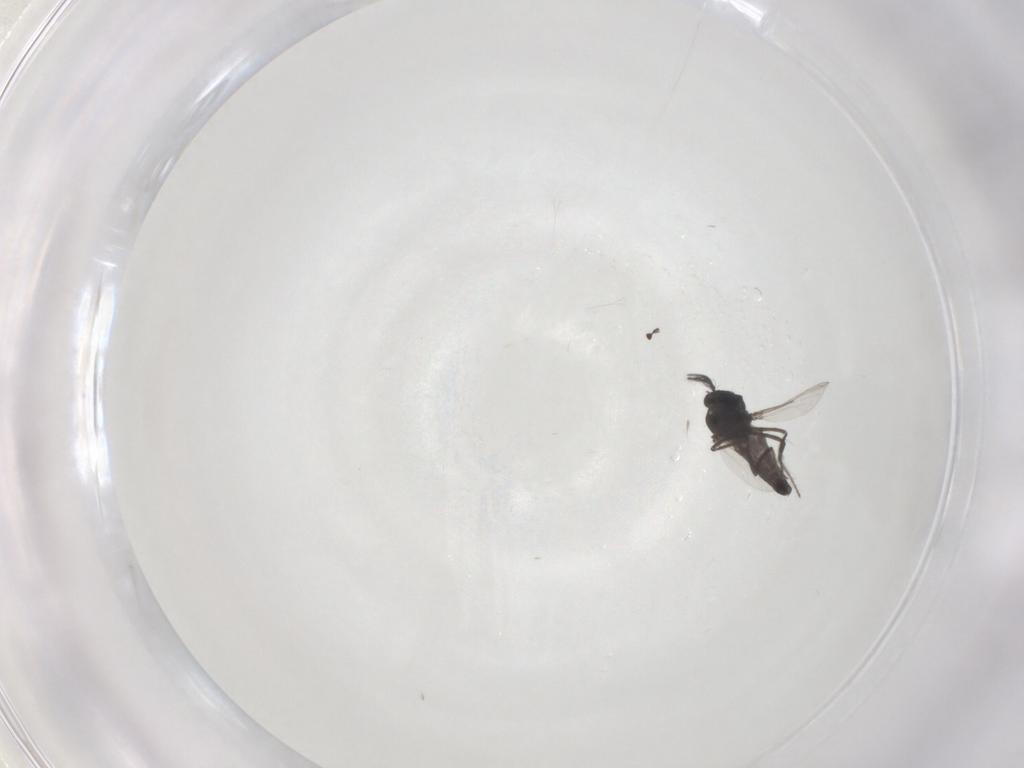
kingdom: Animalia
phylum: Arthropoda
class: Insecta
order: Diptera
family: Ceratopogonidae
